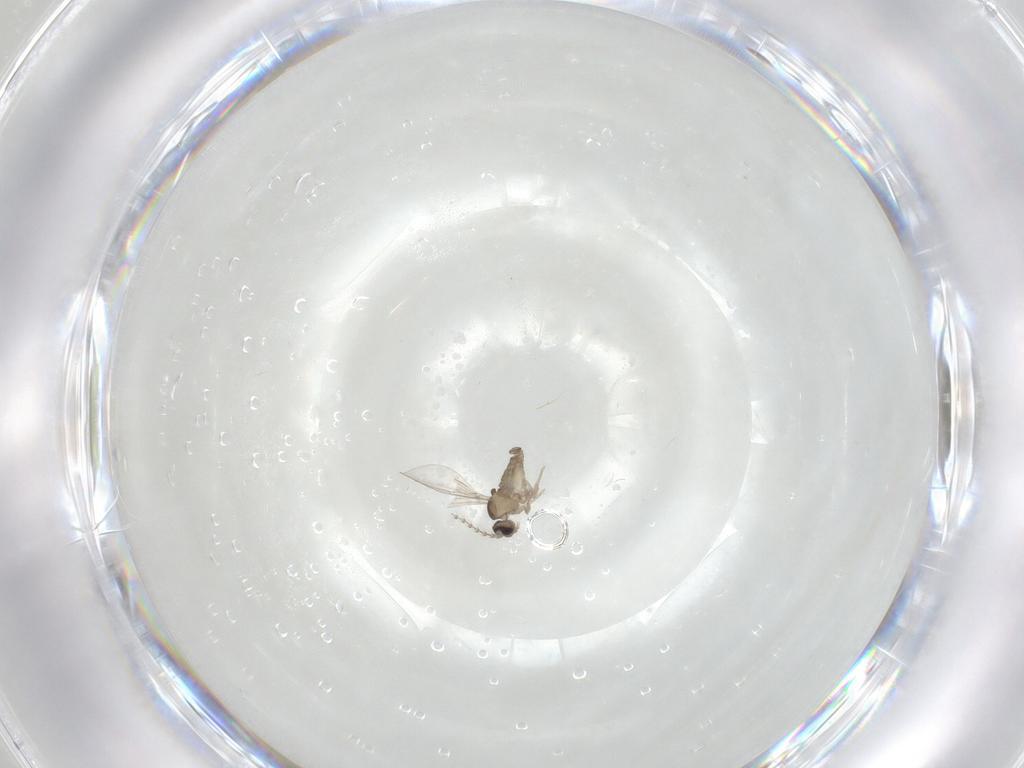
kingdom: Animalia
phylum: Arthropoda
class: Insecta
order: Diptera
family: Cecidomyiidae
